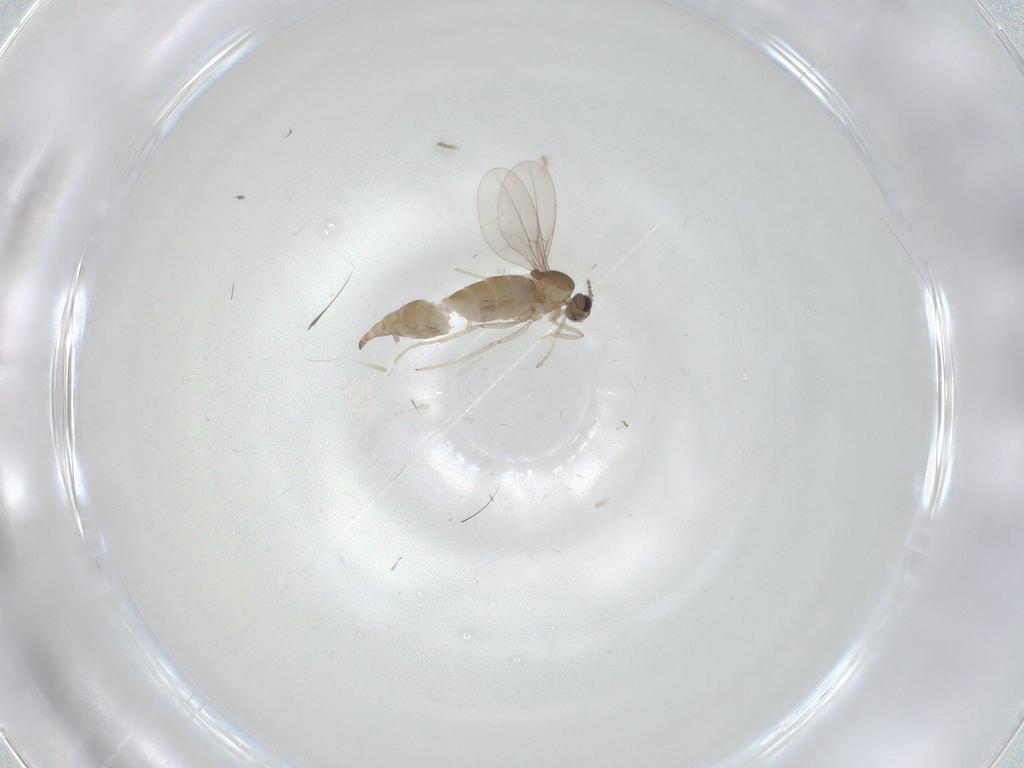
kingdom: Animalia
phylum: Arthropoda
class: Insecta
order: Diptera
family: Cecidomyiidae
